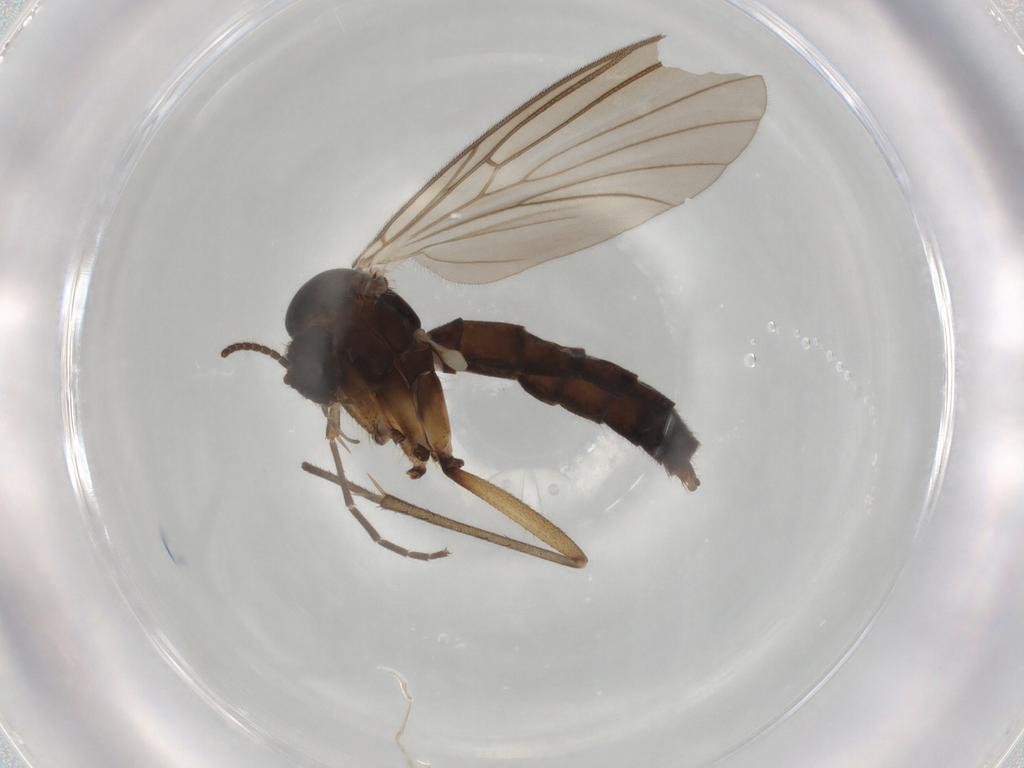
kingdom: Animalia
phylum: Arthropoda
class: Insecta
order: Diptera
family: Mycetophilidae
